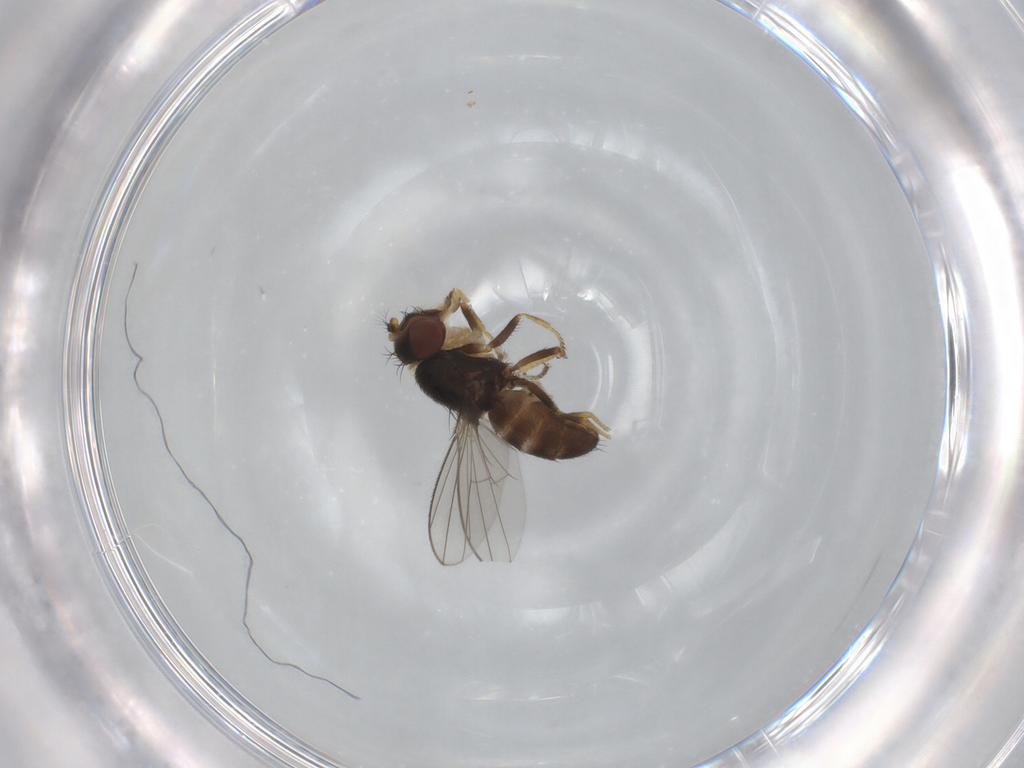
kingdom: Animalia
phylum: Arthropoda
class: Insecta
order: Diptera
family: Ephydridae
